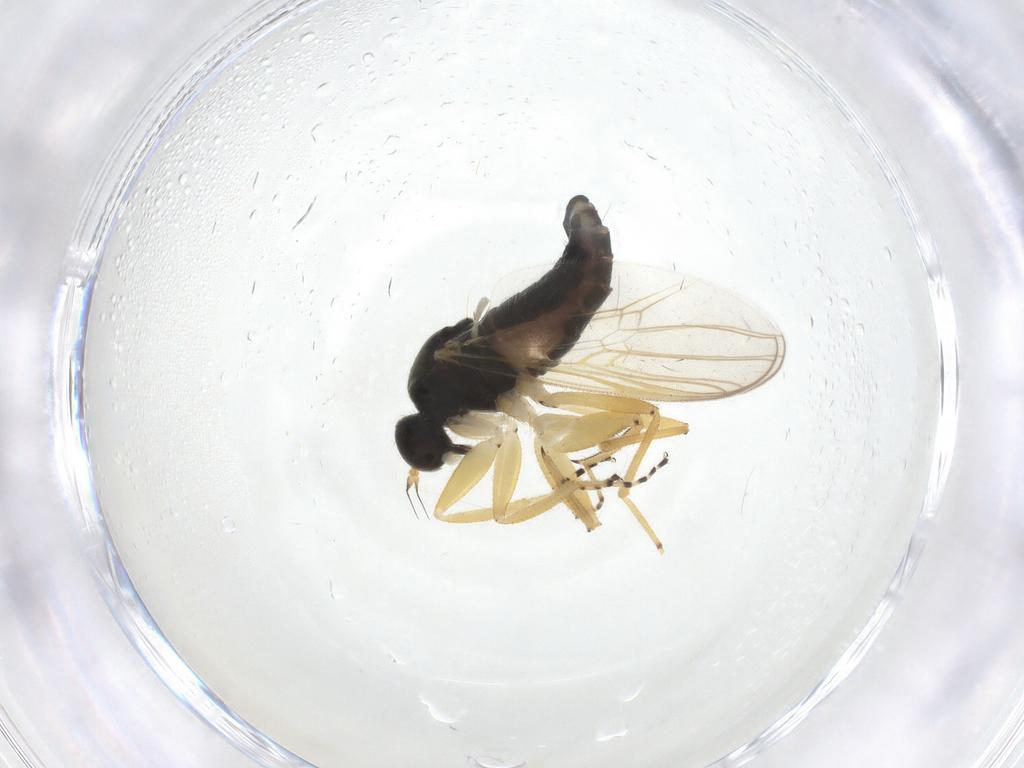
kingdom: Animalia
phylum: Arthropoda
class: Insecta
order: Diptera
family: Hybotidae
